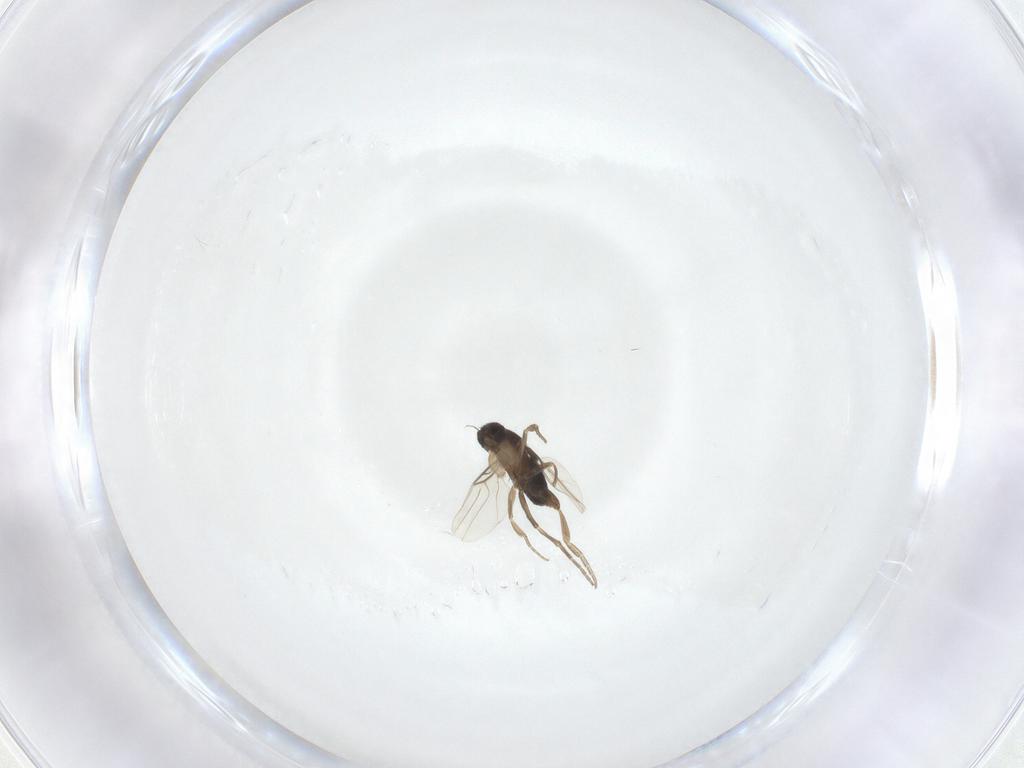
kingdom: Animalia
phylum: Arthropoda
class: Insecta
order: Diptera
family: Phoridae
